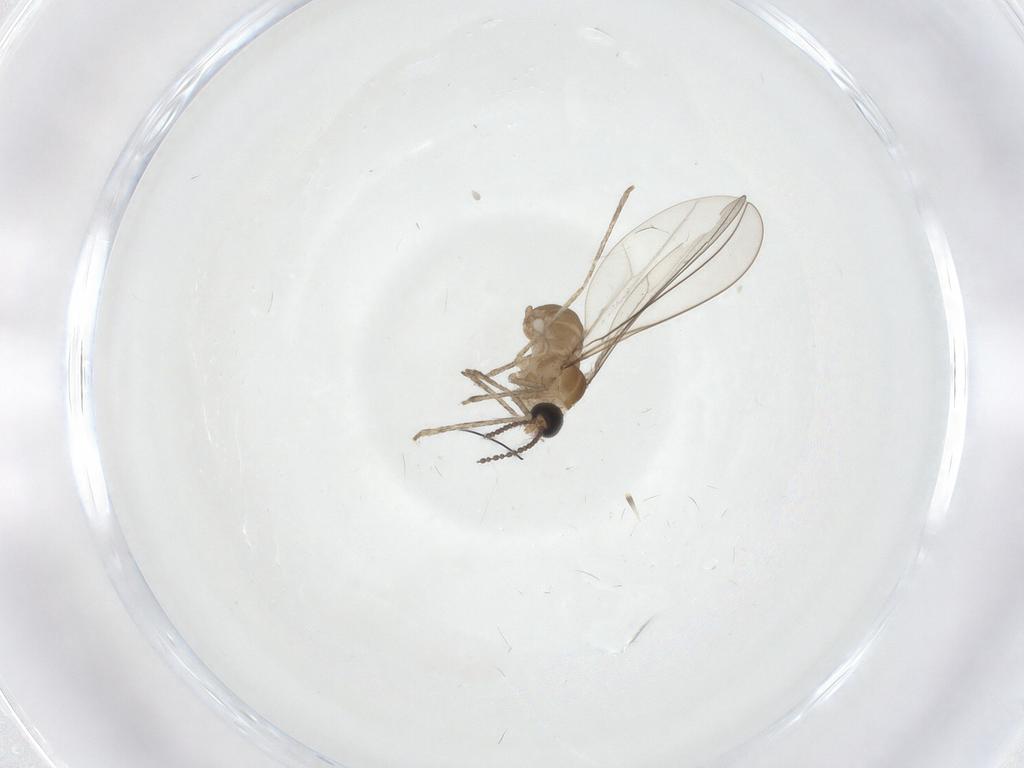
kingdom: Animalia
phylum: Arthropoda
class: Insecta
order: Diptera
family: Cecidomyiidae
